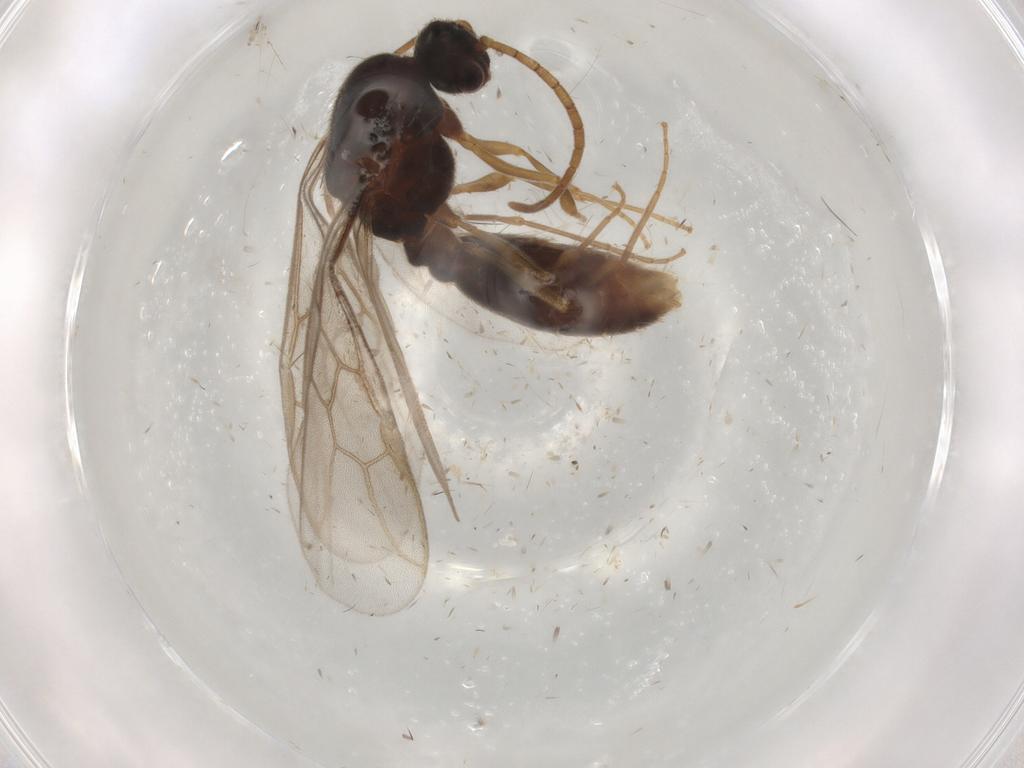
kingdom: Animalia
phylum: Arthropoda
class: Insecta
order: Hymenoptera
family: Formicidae
